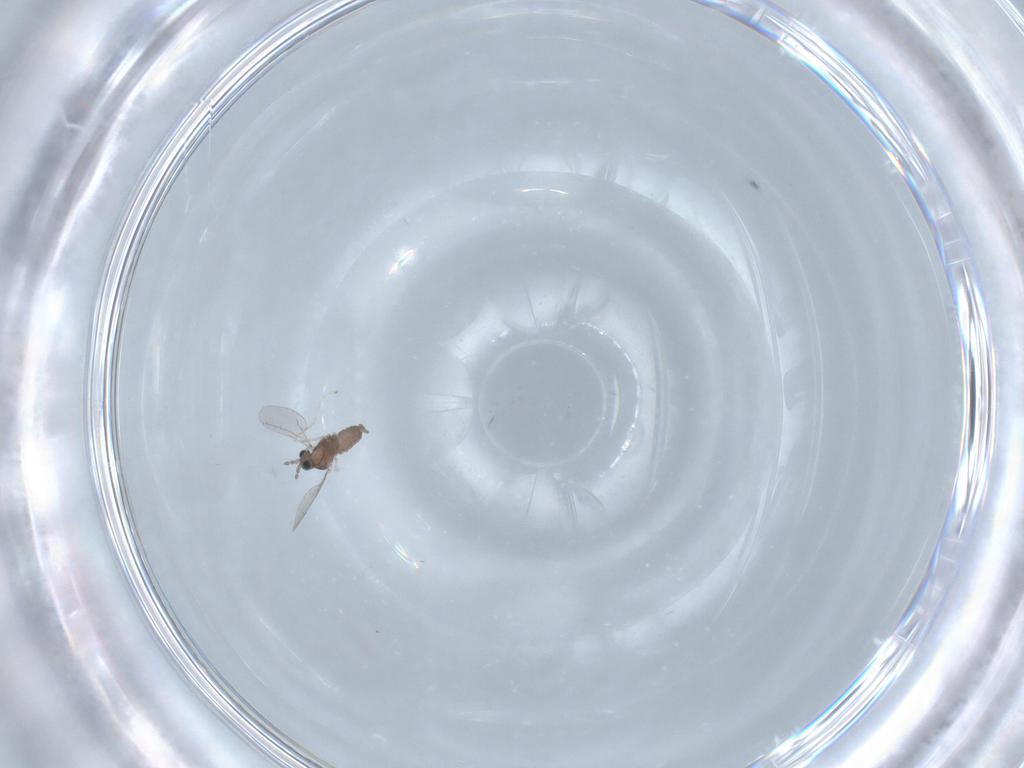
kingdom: Animalia
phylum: Arthropoda
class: Insecta
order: Diptera
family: Cecidomyiidae
